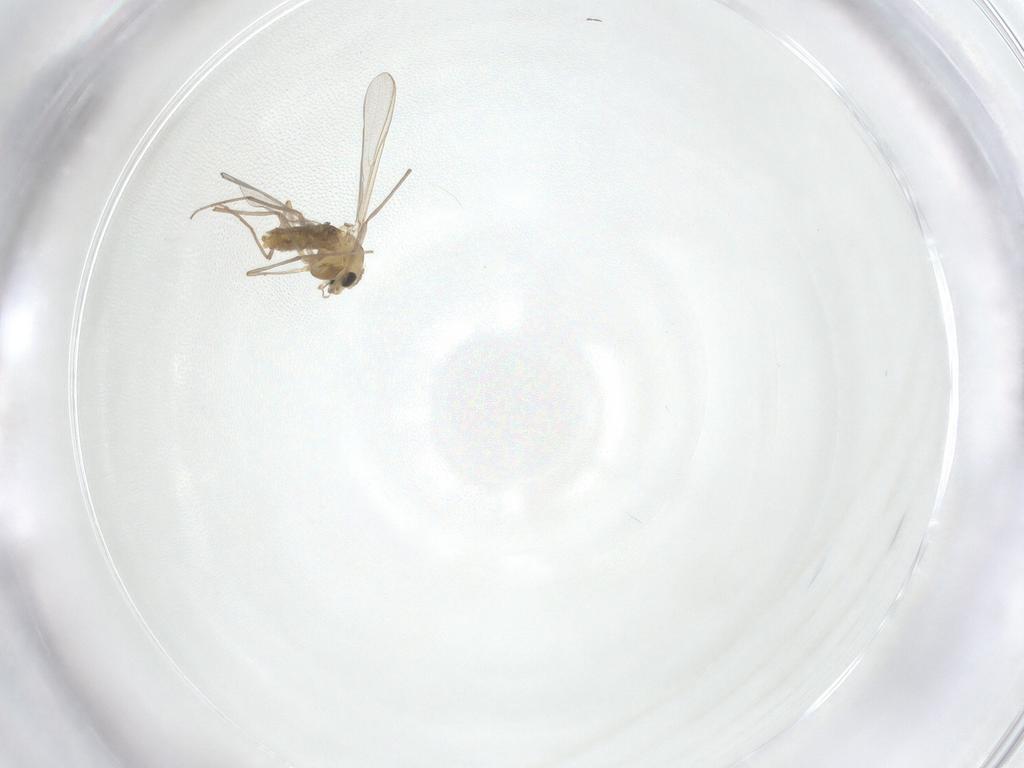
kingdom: Animalia
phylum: Arthropoda
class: Insecta
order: Diptera
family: Chironomidae
